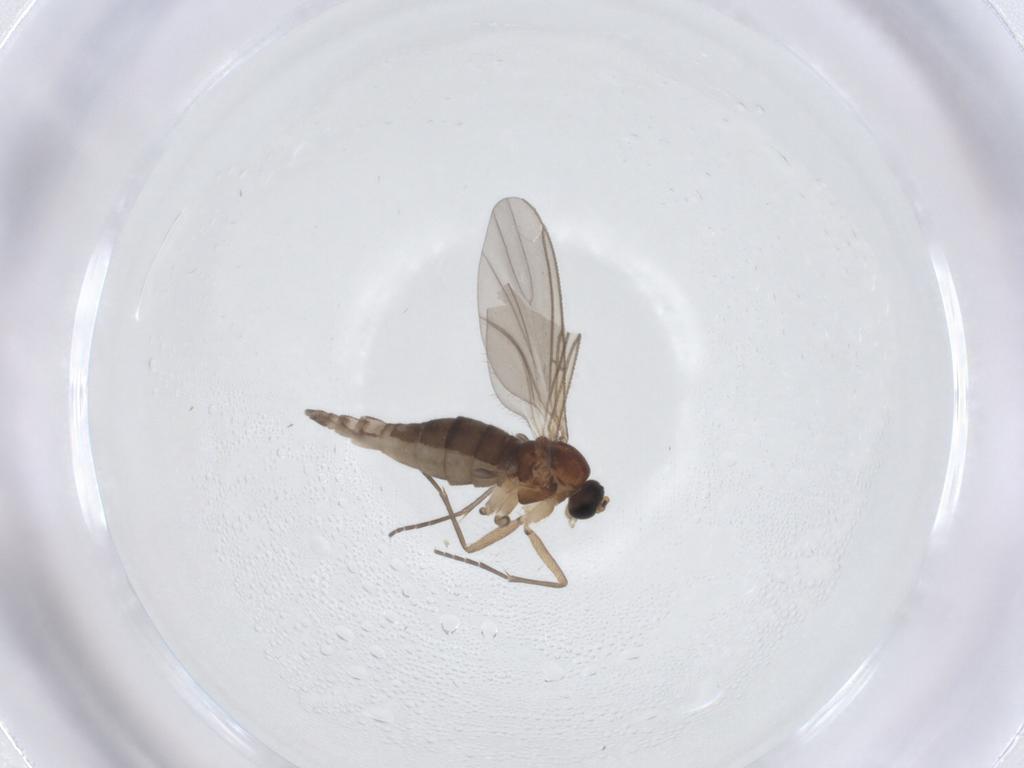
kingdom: Animalia
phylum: Arthropoda
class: Insecta
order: Diptera
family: Sciaridae
